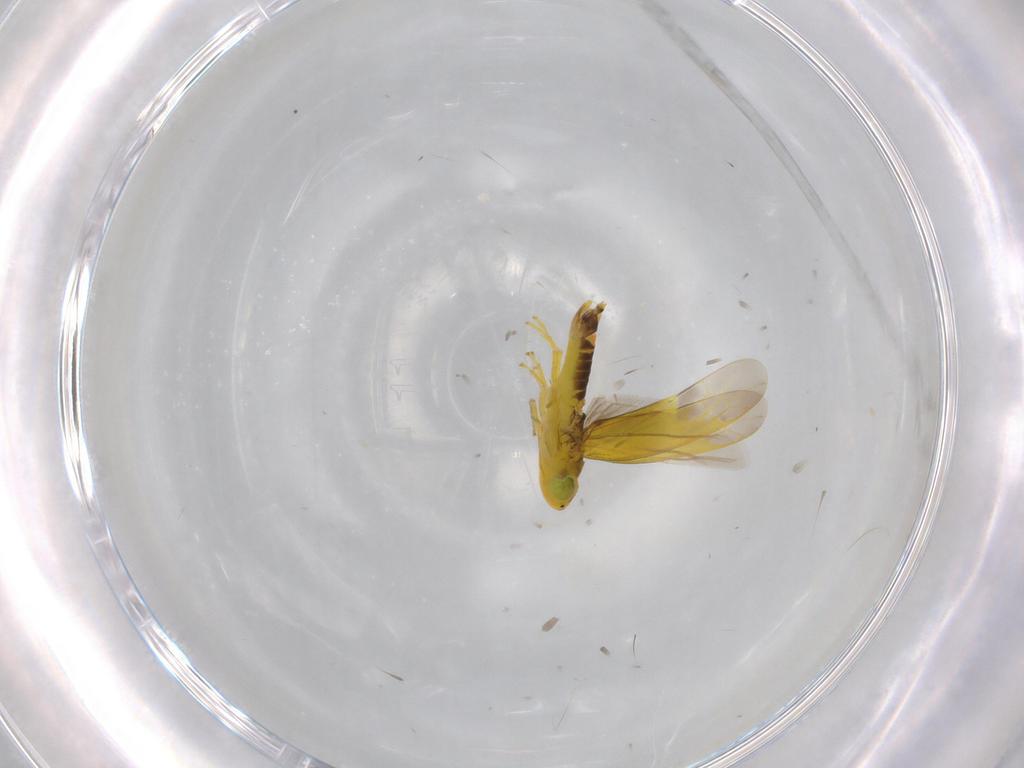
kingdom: Animalia
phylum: Arthropoda
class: Insecta
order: Hemiptera
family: Cicadellidae
